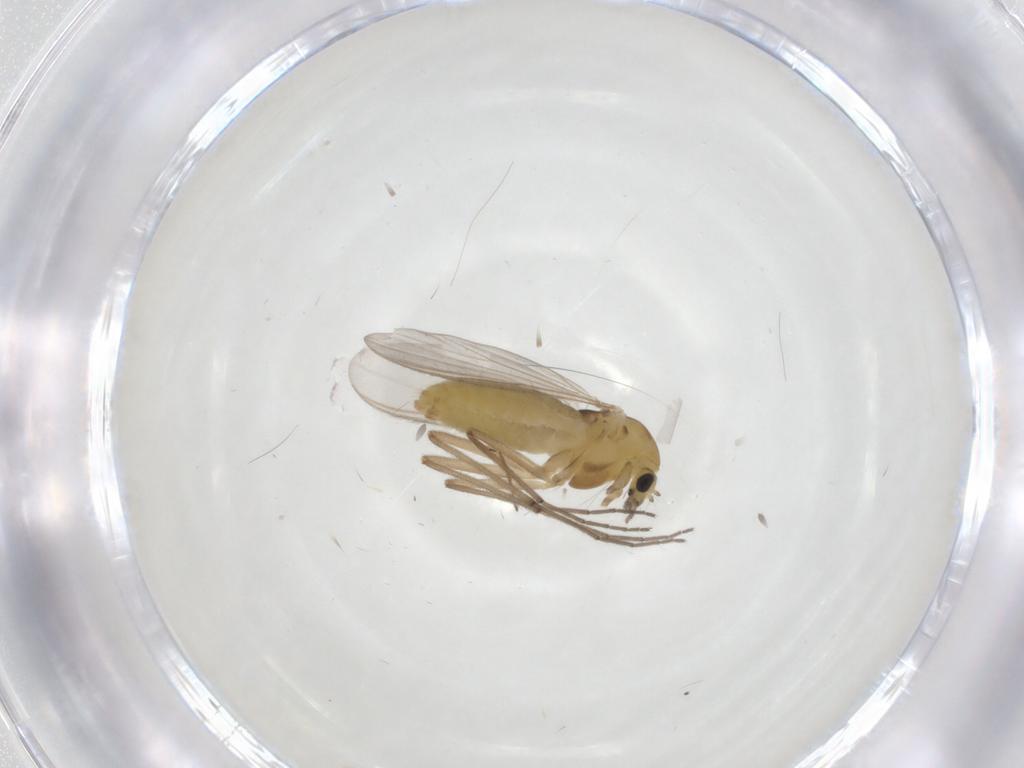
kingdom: Animalia
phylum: Arthropoda
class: Insecta
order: Diptera
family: Chironomidae
